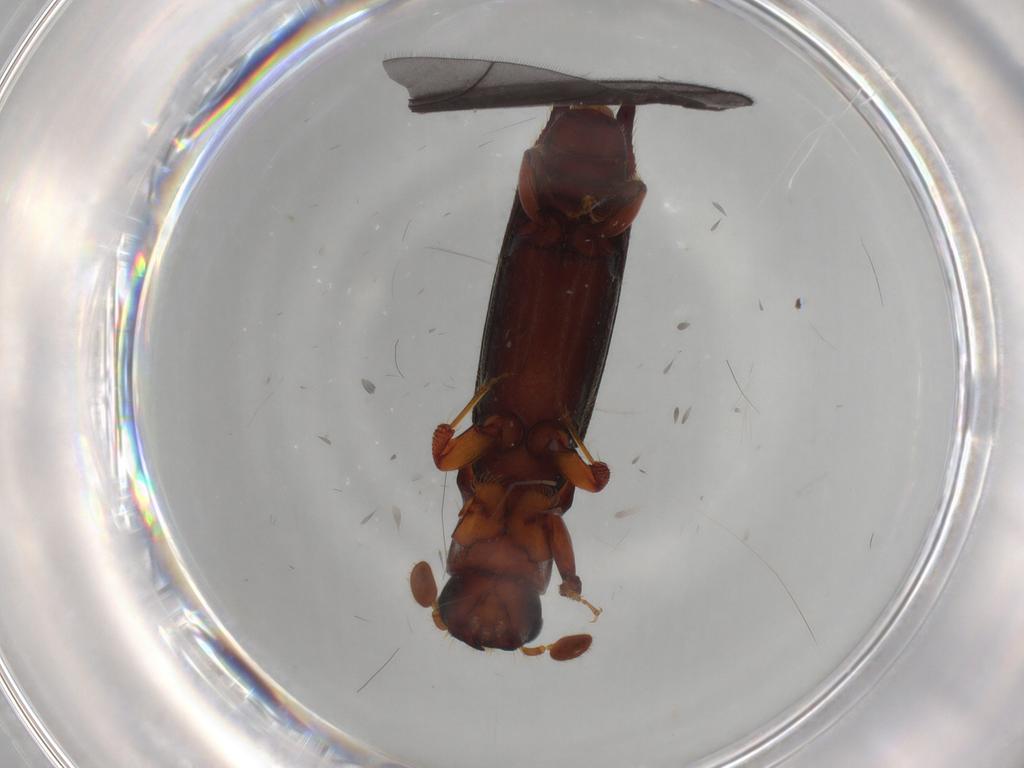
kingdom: Animalia
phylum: Arthropoda
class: Insecta
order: Coleoptera
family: Curculionidae
